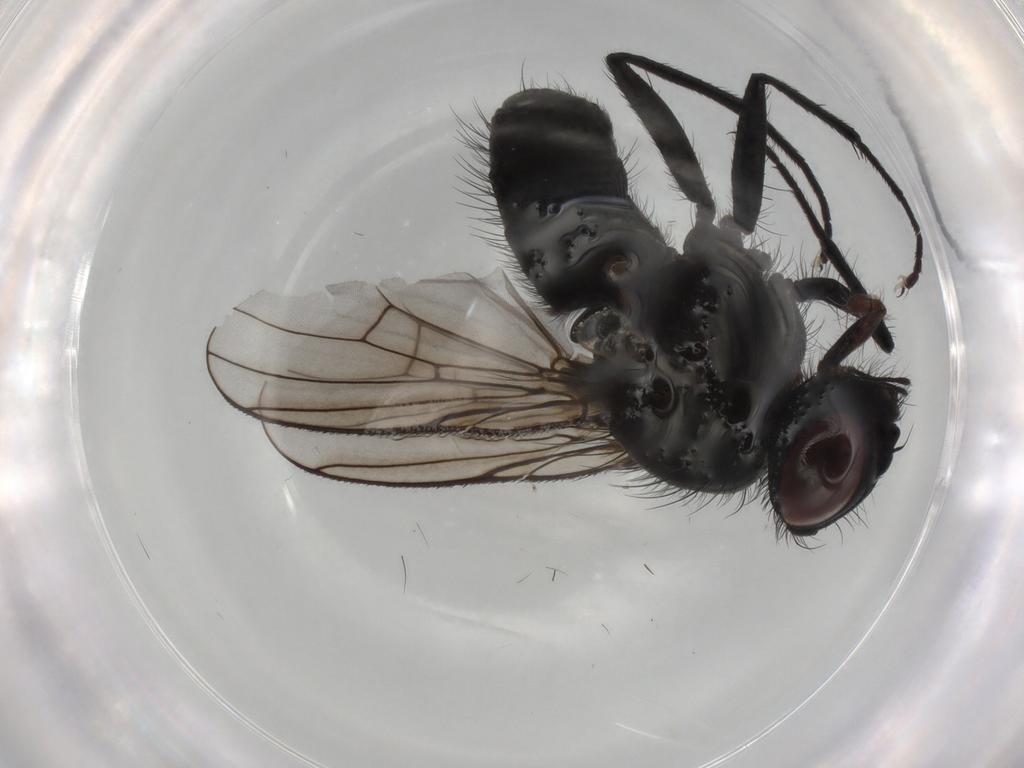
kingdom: Animalia
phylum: Arthropoda
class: Insecta
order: Diptera
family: Muscidae
